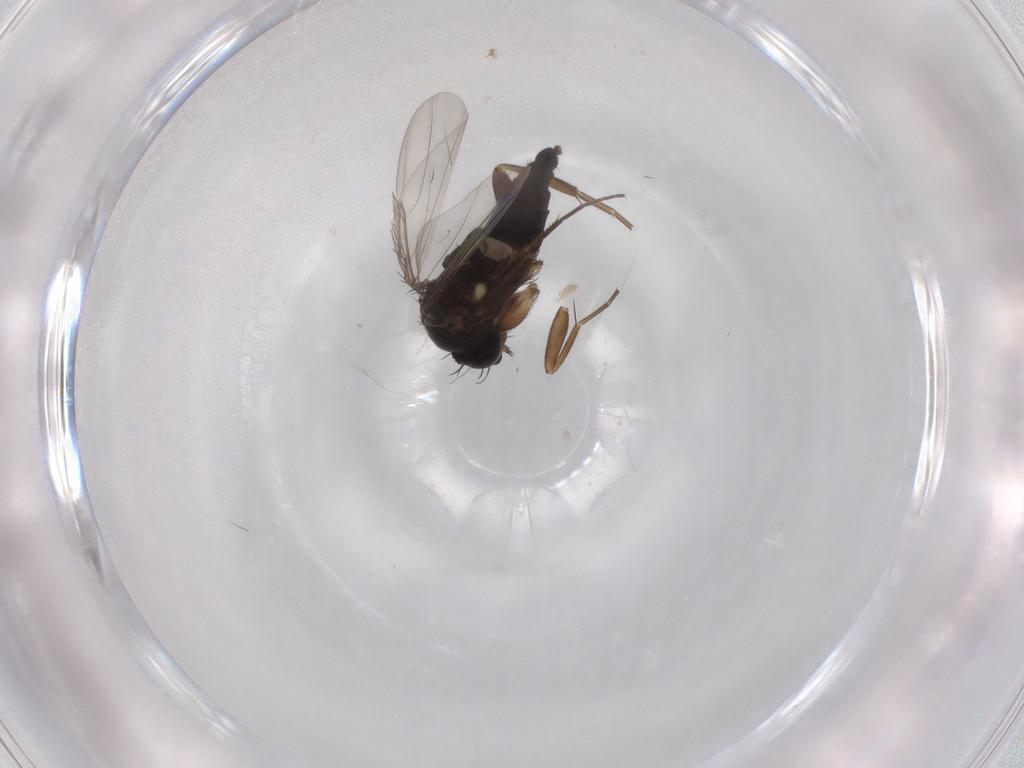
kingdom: Animalia
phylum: Arthropoda
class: Insecta
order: Diptera
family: Phoridae
